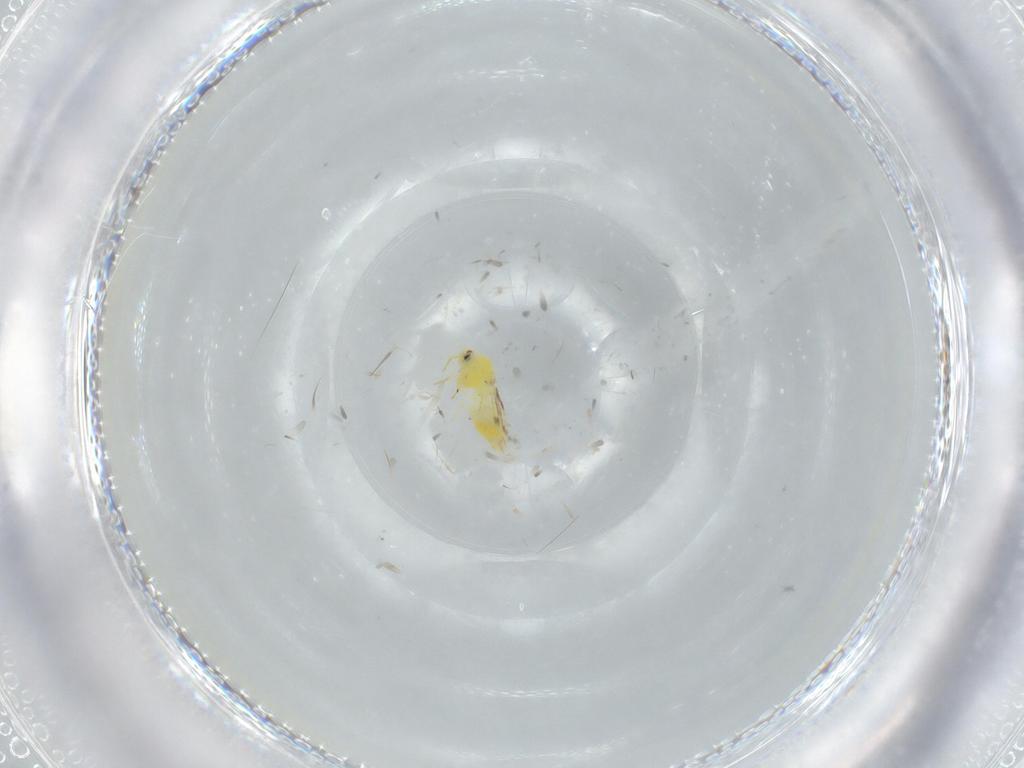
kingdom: Animalia
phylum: Arthropoda
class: Insecta
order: Hemiptera
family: Aleyrodidae
